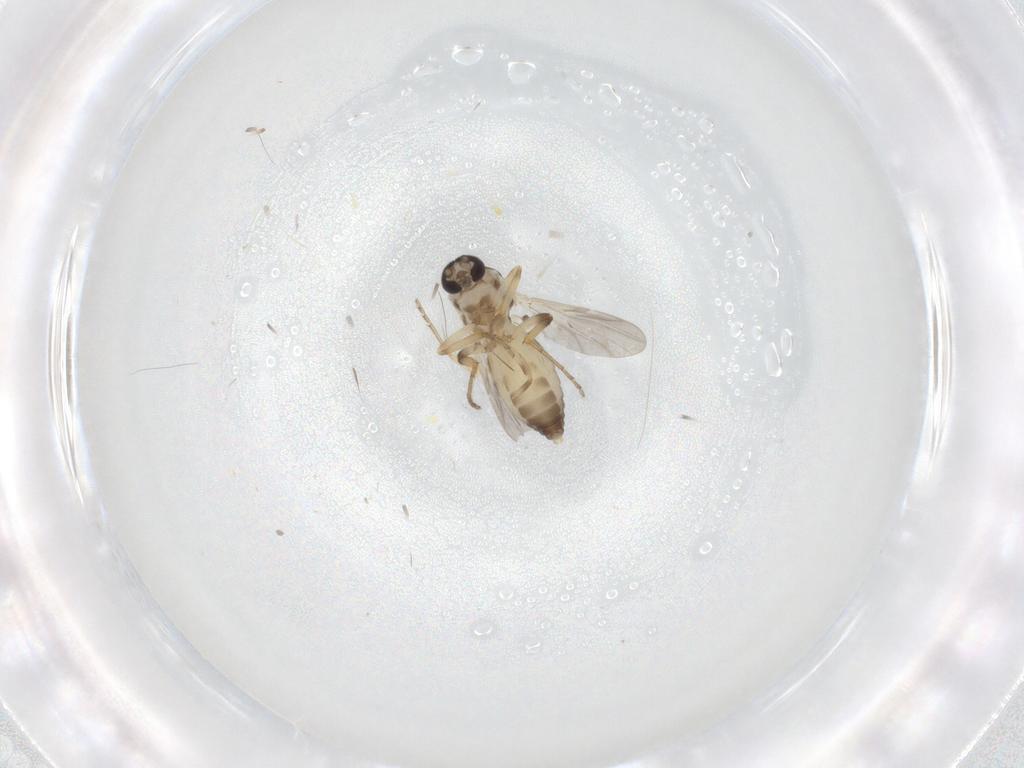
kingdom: Animalia
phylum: Arthropoda
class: Insecta
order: Diptera
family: Ceratopogonidae
